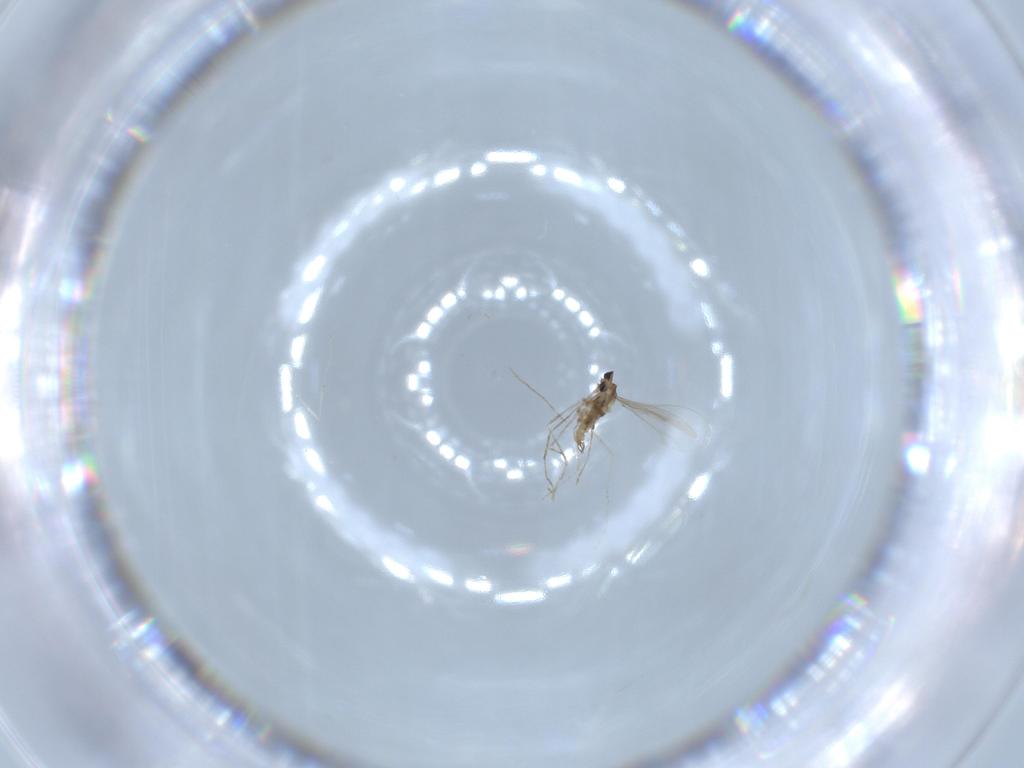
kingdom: Animalia
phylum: Arthropoda
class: Insecta
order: Diptera
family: Cecidomyiidae
